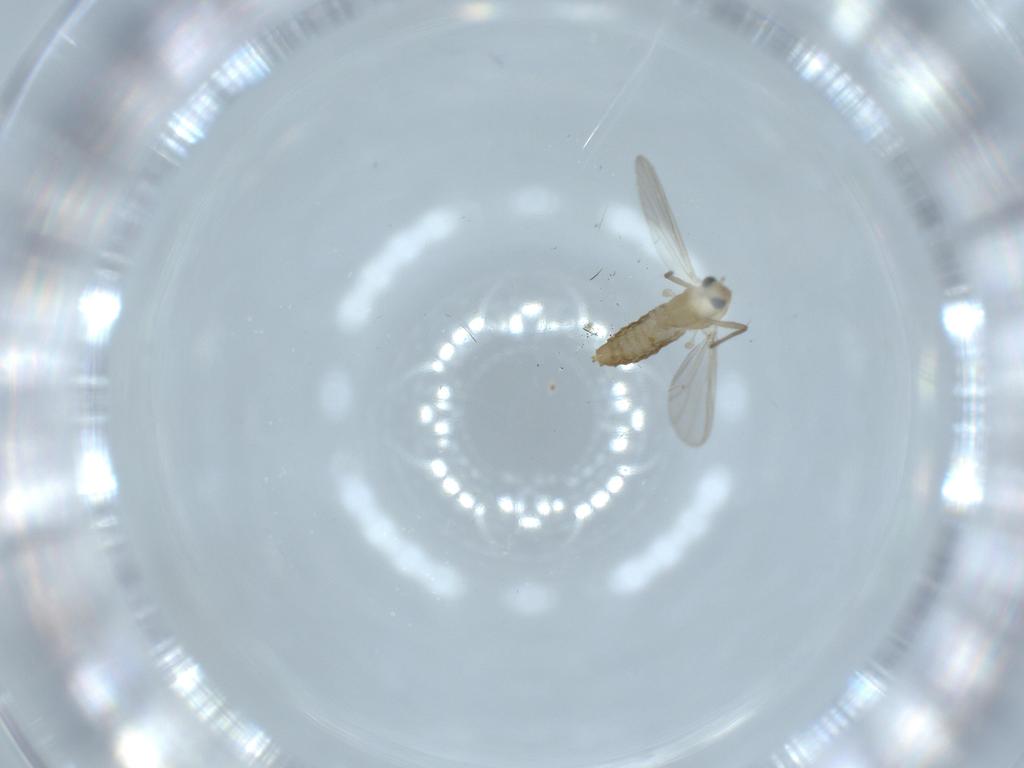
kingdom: Animalia
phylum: Arthropoda
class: Insecta
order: Diptera
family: Chironomidae
